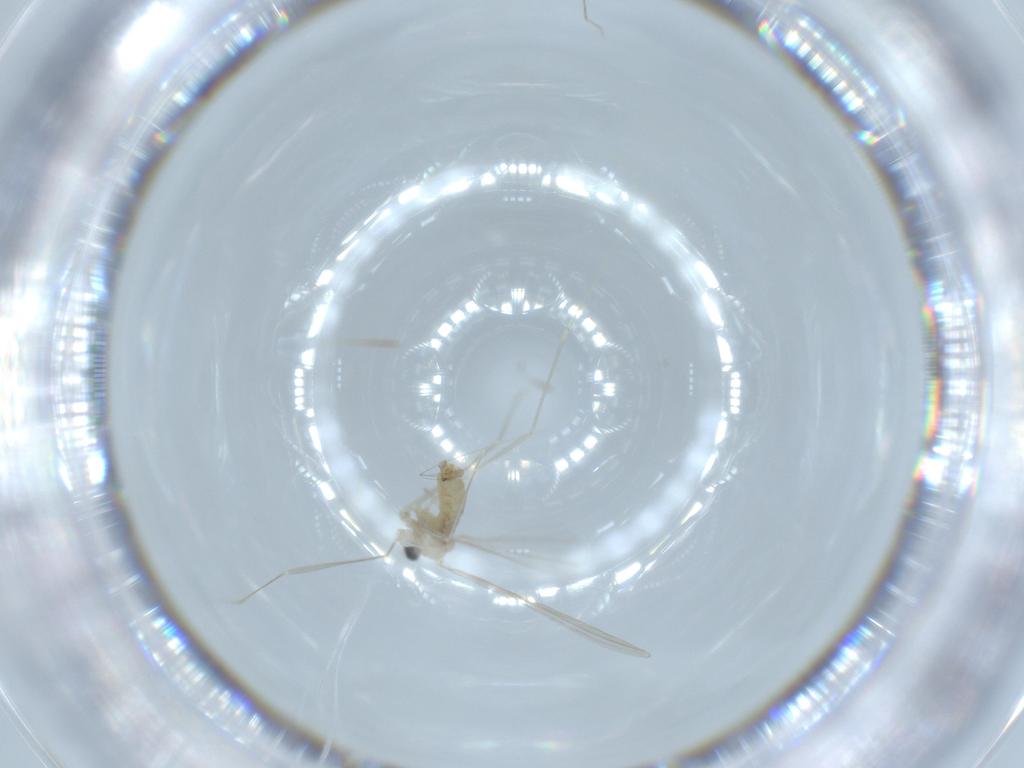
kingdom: Animalia
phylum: Arthropoda
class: Insecta
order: Diptera
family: Cecidomyiidae
